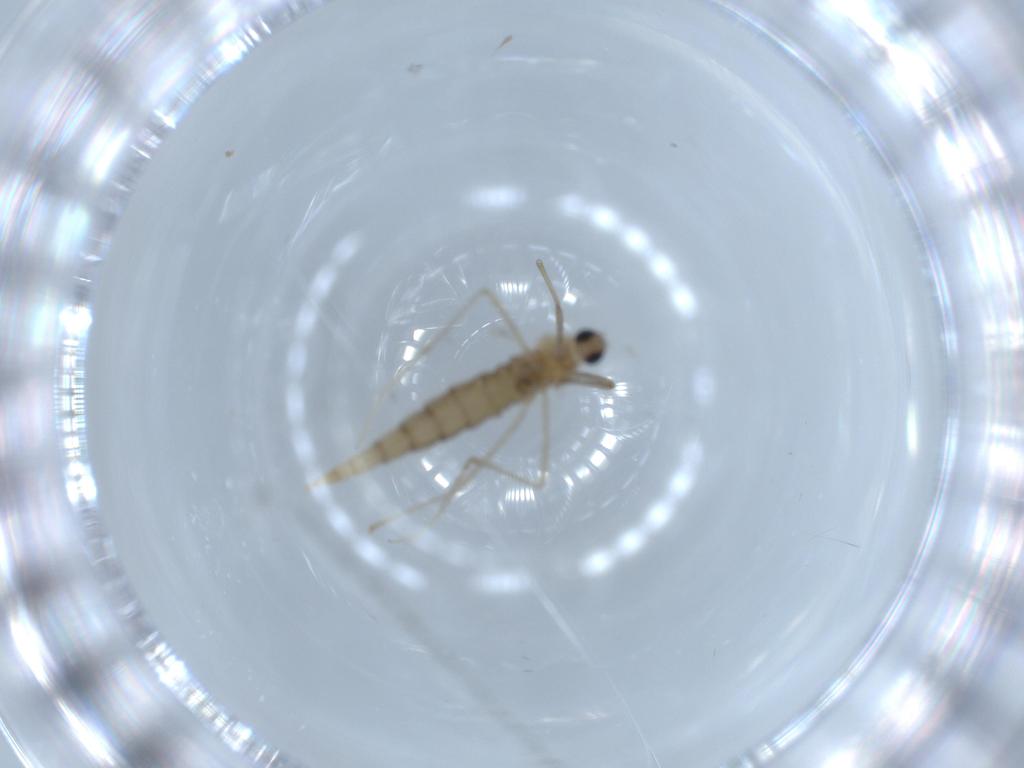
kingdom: Animalia
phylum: Arthropoda
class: Insecta
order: Diptera
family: Cecidomyiidae
